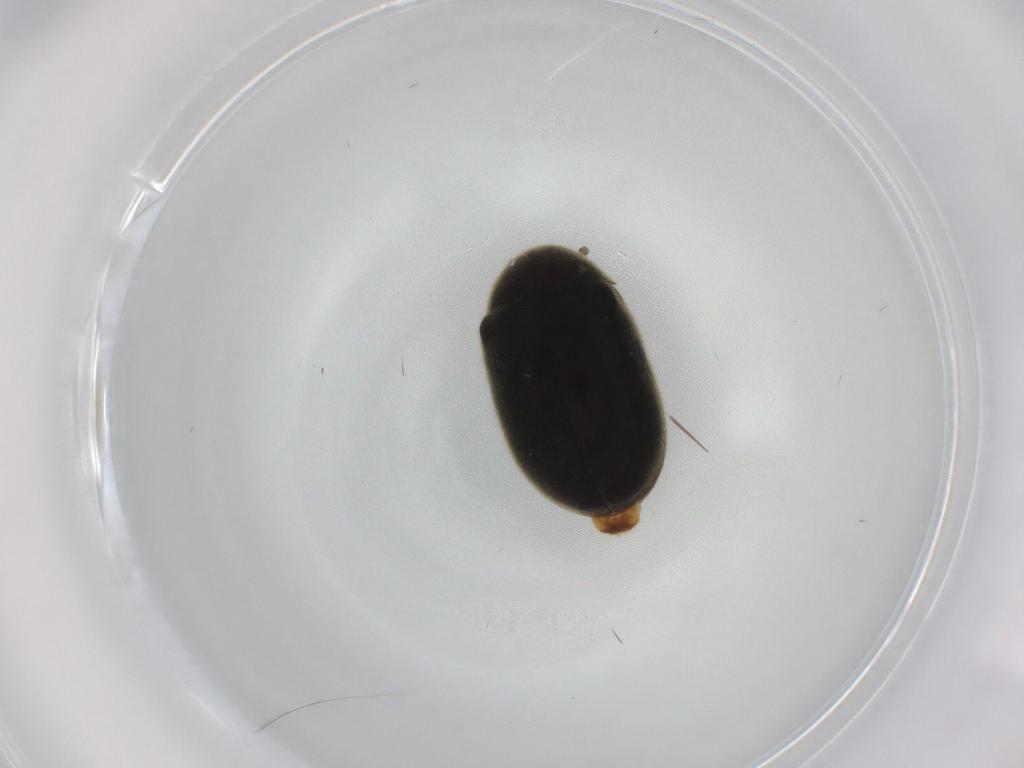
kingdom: Animalia
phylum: Arthropoda
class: Insecta
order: Coleoptera
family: Ptinidae
